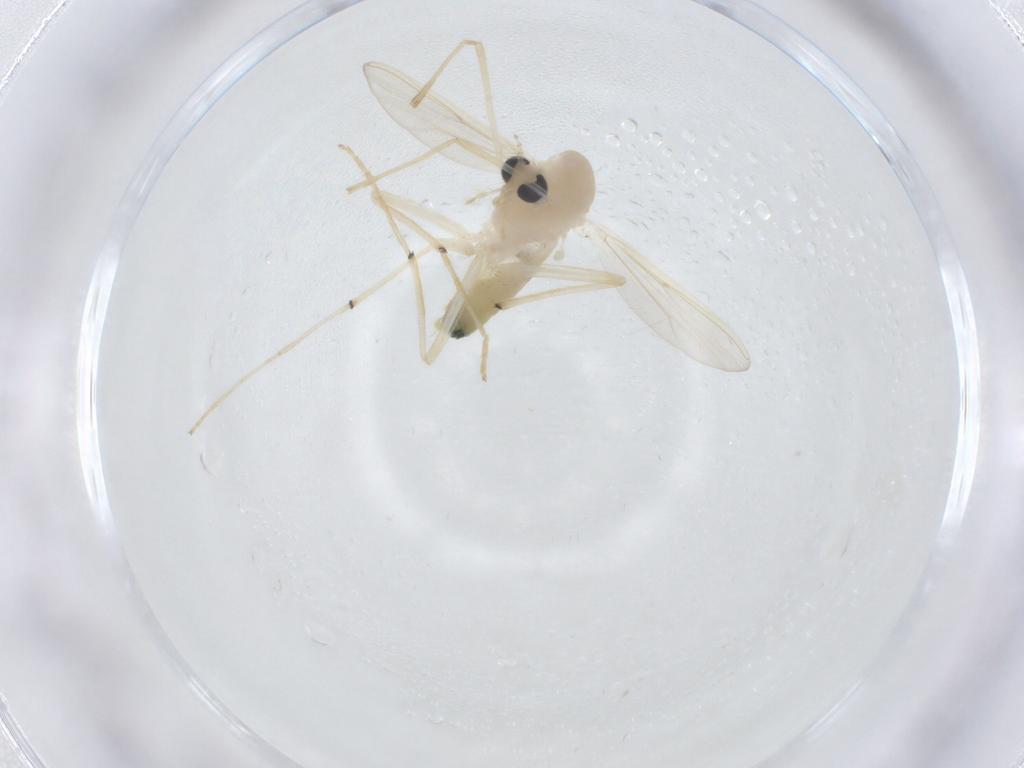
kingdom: Animalia
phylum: Arthropoda
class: Insecta
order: Diptera
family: Chironomidae
